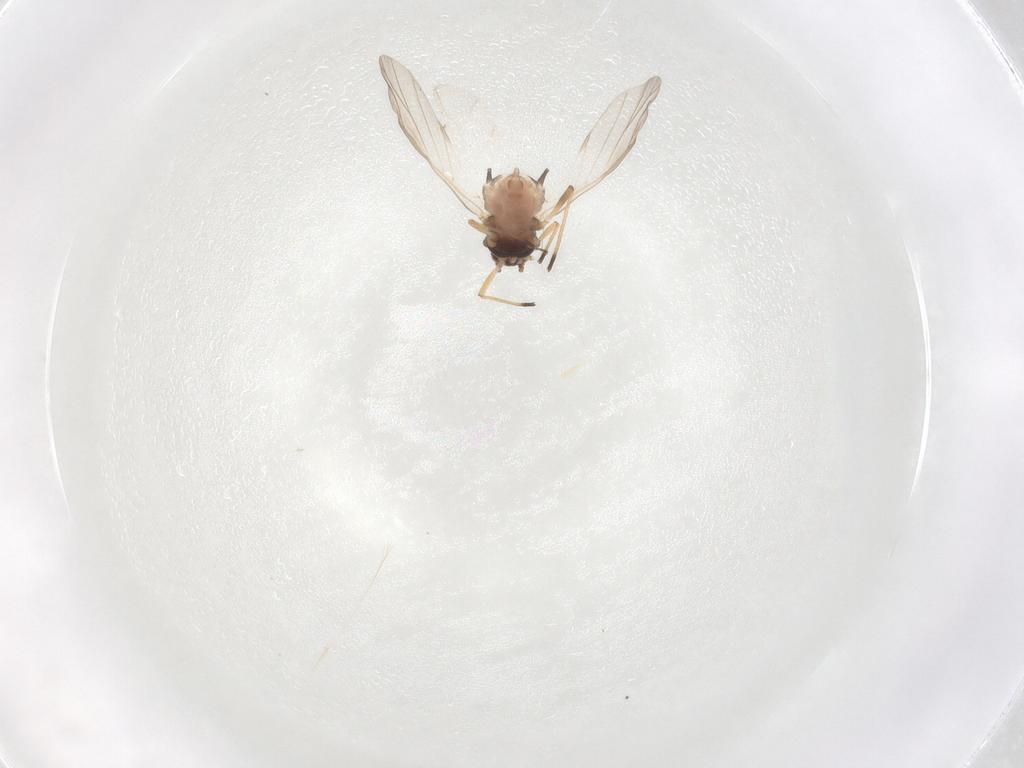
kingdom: Animalia
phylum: Arthropoda
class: Insecta
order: Hemiptera
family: Aphididae
